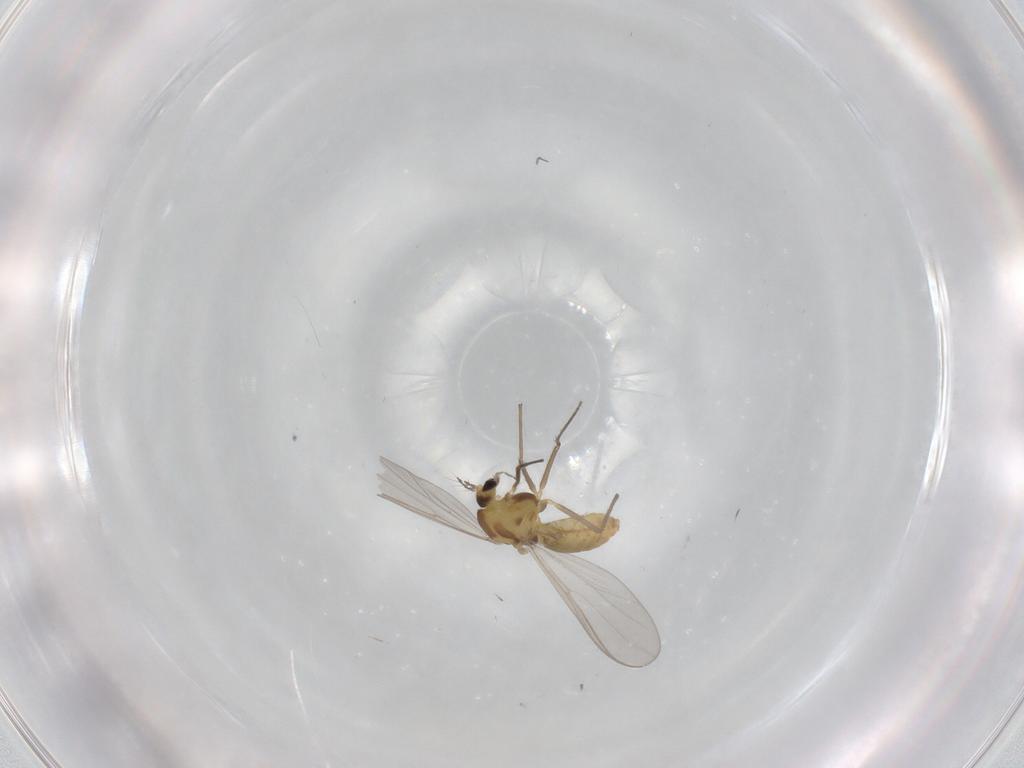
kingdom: Animalia
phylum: Arthropoda
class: Insecta
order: Diptera
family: Chironomidae
